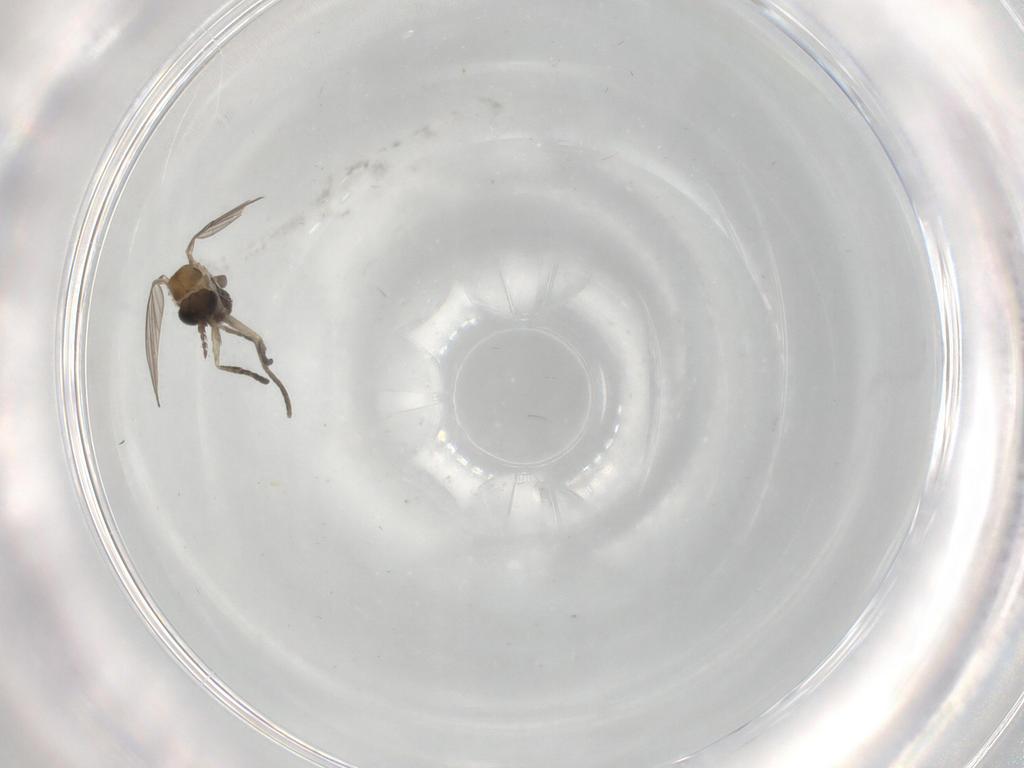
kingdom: Animalia
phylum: Arthropoda
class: Insecta
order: Diptera
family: Psychodidae
